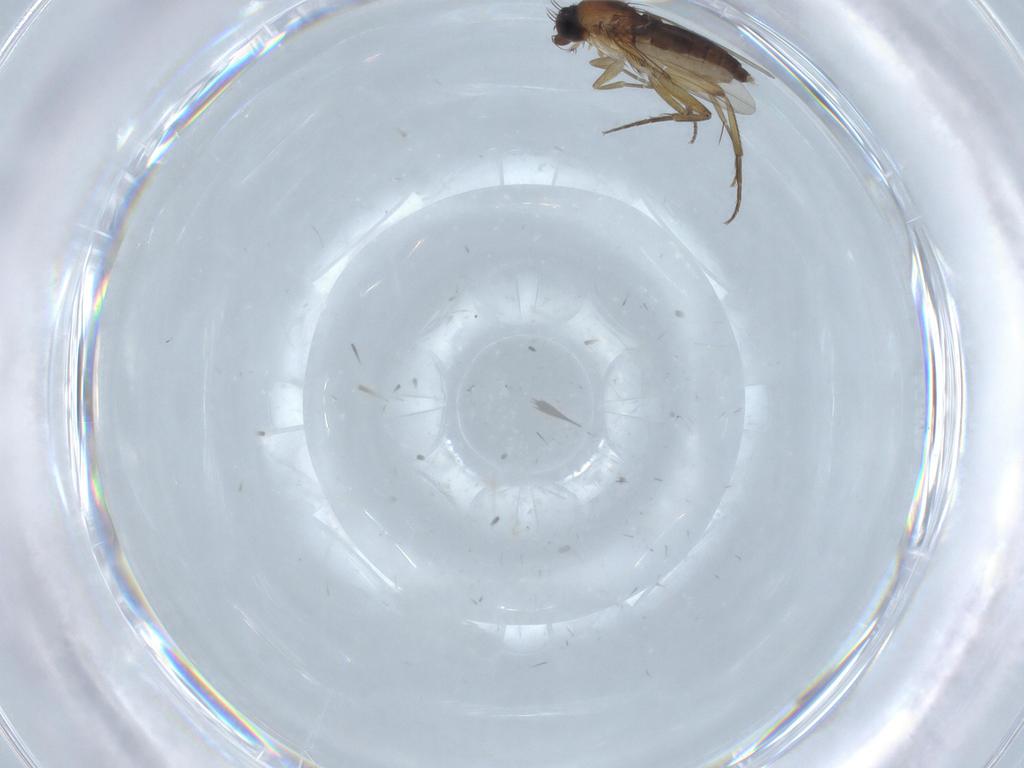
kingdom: Animalia
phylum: Arthropoda
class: Insecta
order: Diptera
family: Phoridae
